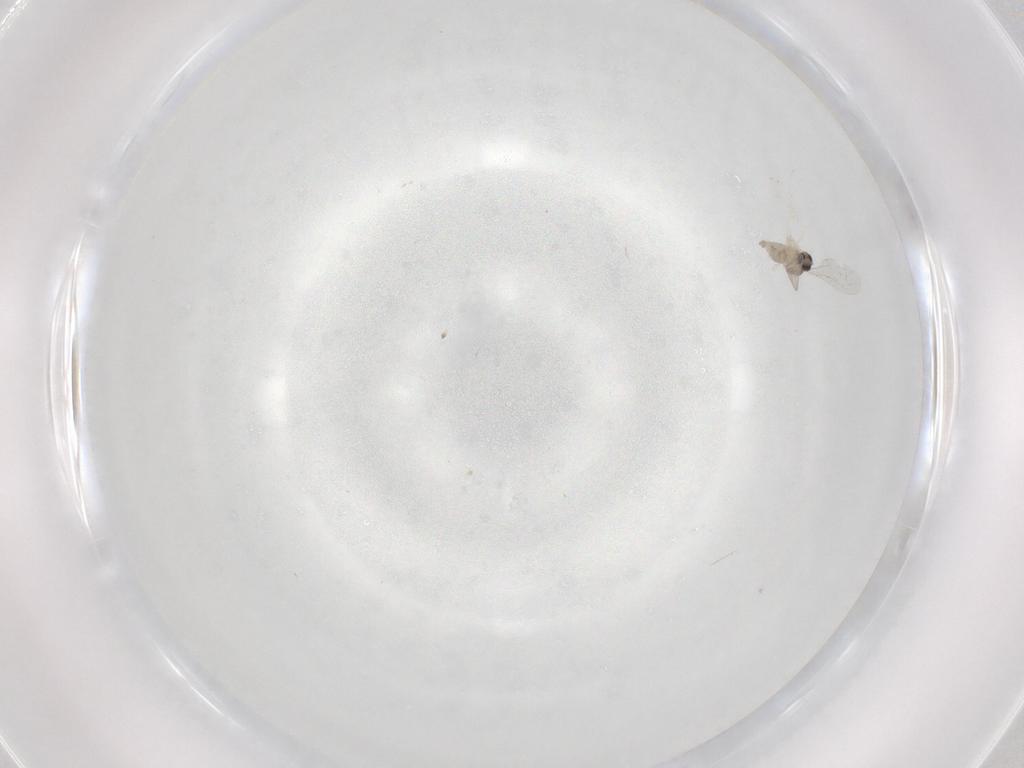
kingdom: Animalia
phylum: Arthropoda
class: Insecta
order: Diptera
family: Cecidomyiidae
